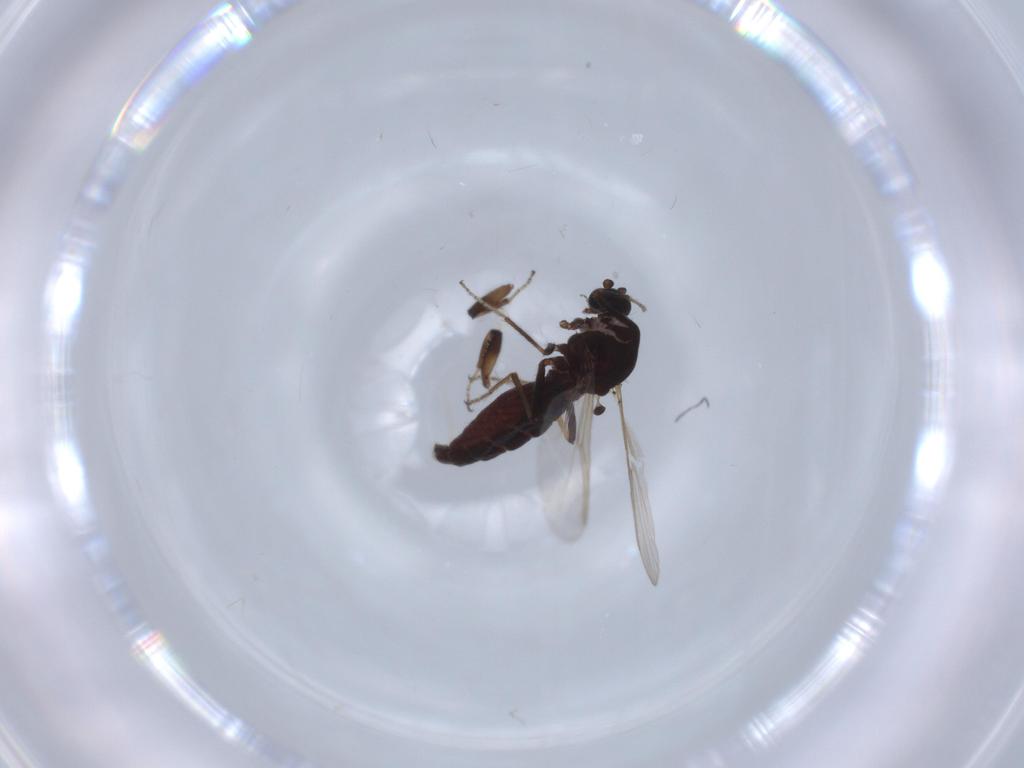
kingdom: Animalia
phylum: Arthropoda
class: Insecta
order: Diptera
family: Ceratopogonidae
